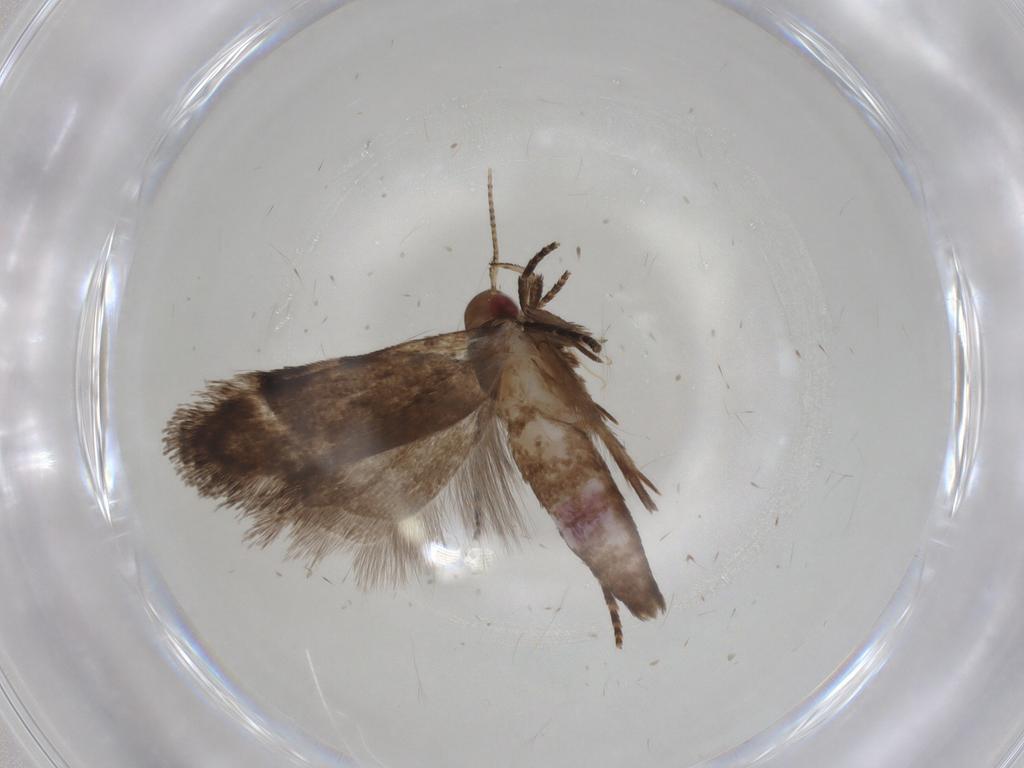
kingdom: Animalia
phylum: Arthropoda
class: Insecta
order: Lepidoptera
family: Gelechiidae
